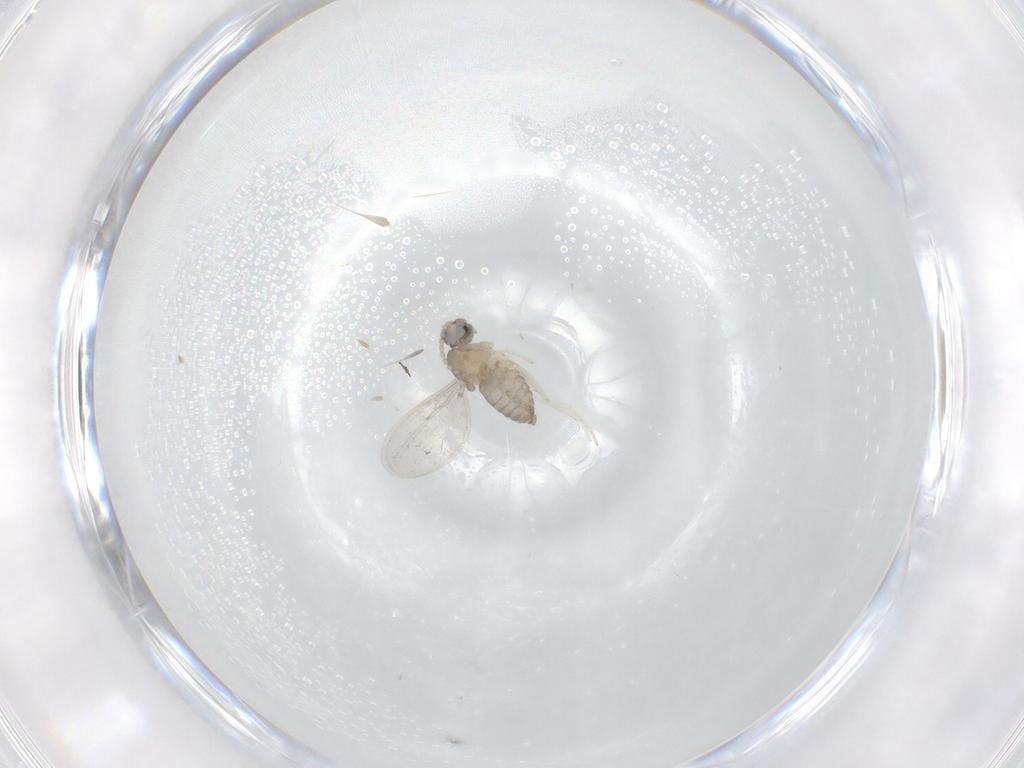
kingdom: Animalia
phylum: Arthropoda
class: Insecta
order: Diptera
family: Cecidomyiidae
